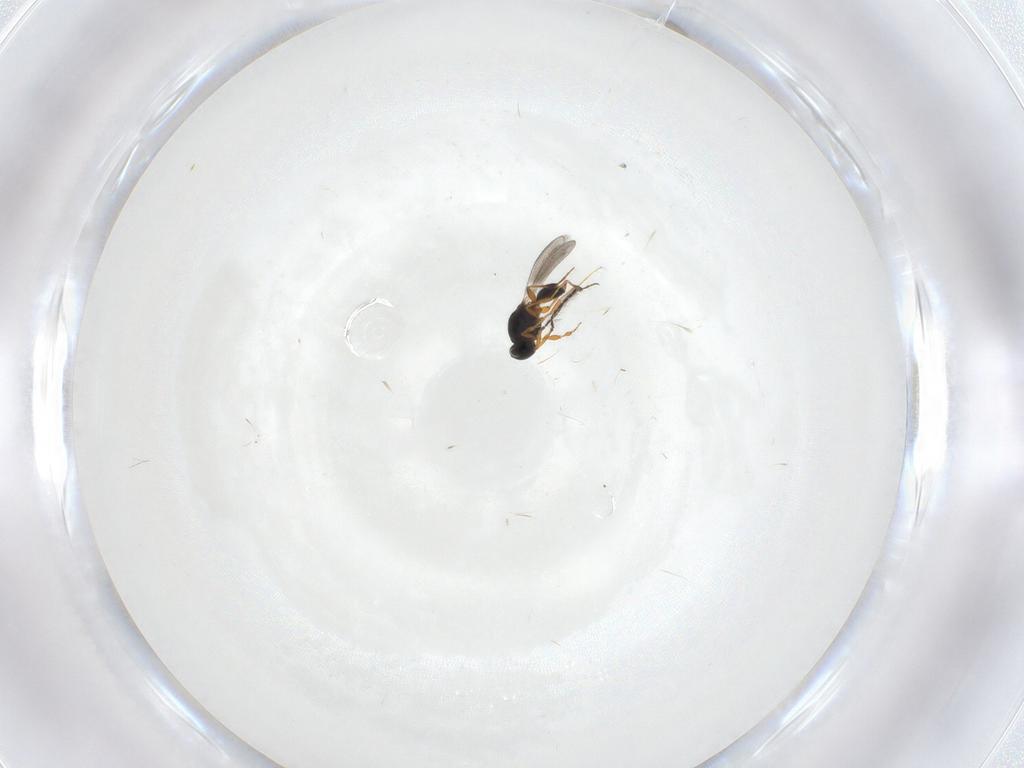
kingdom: Animalia
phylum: Arthropoda
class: Insecta
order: Hymenoptera
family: Platygastridae
